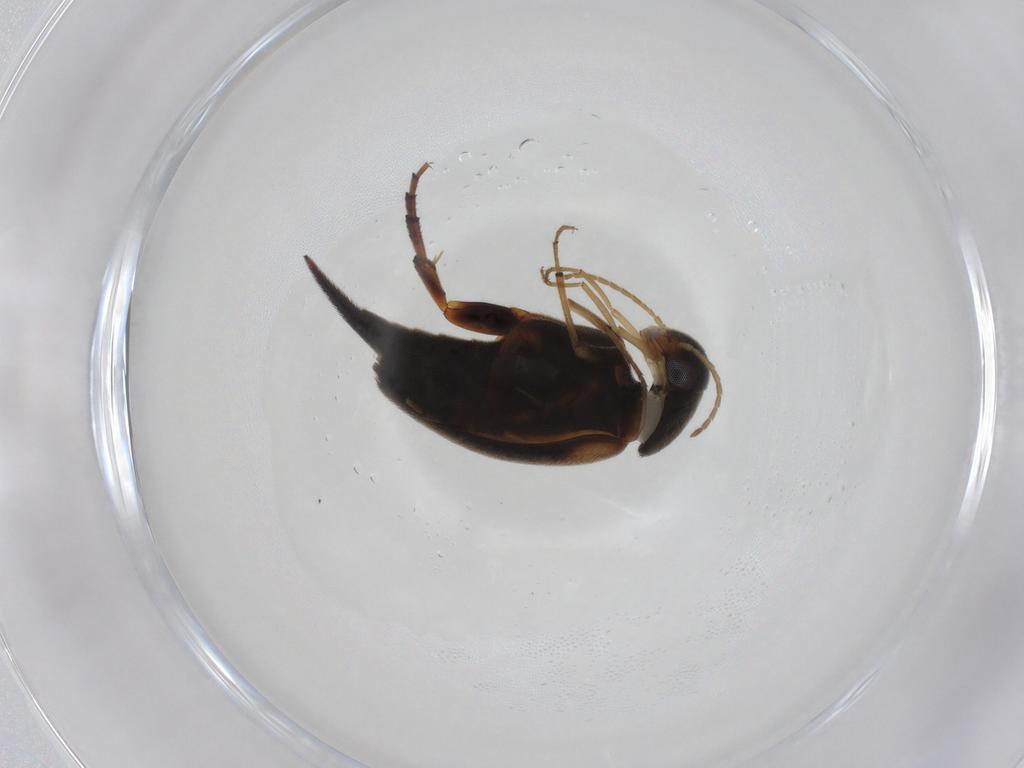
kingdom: Animalia
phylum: Arthropoda
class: Insecta
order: Coleoptera
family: Mordellidae
